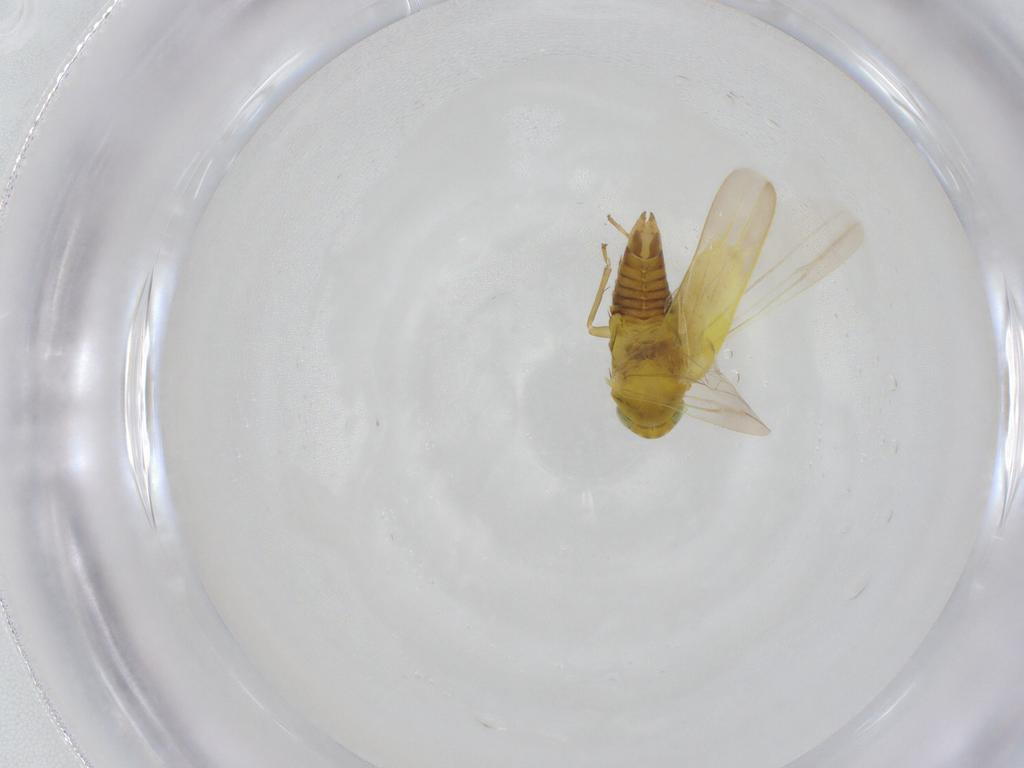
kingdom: Animalia
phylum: Arthropoda
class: Insecta
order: Hemiptera
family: Cicadellidae
